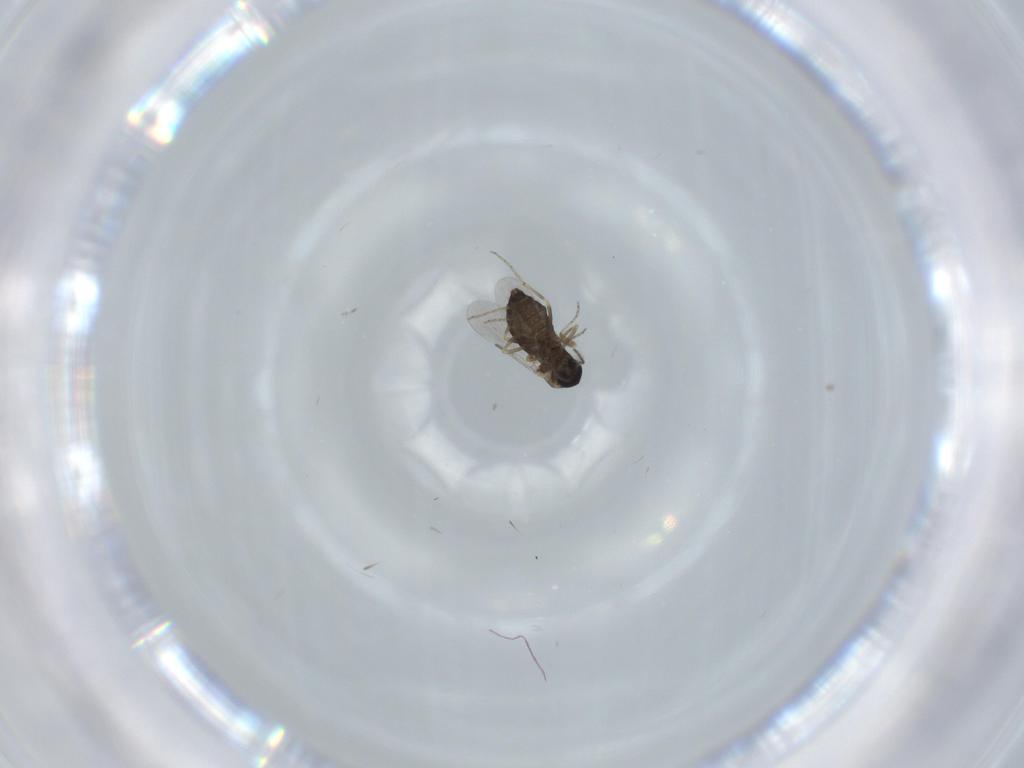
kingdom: Animalia
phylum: Arthropoda
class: Insecta
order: Diptera
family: Ceratopogonidae
